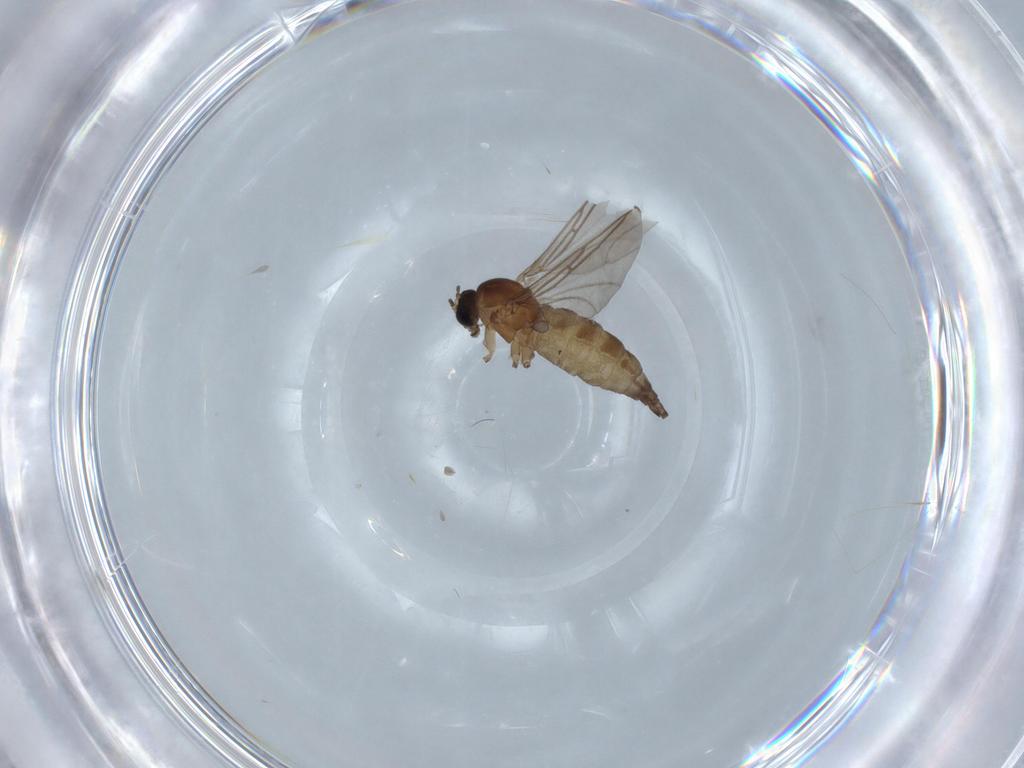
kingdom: Animalia
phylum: Arthropoda
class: Insecta
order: Diptera
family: Sciaridae
